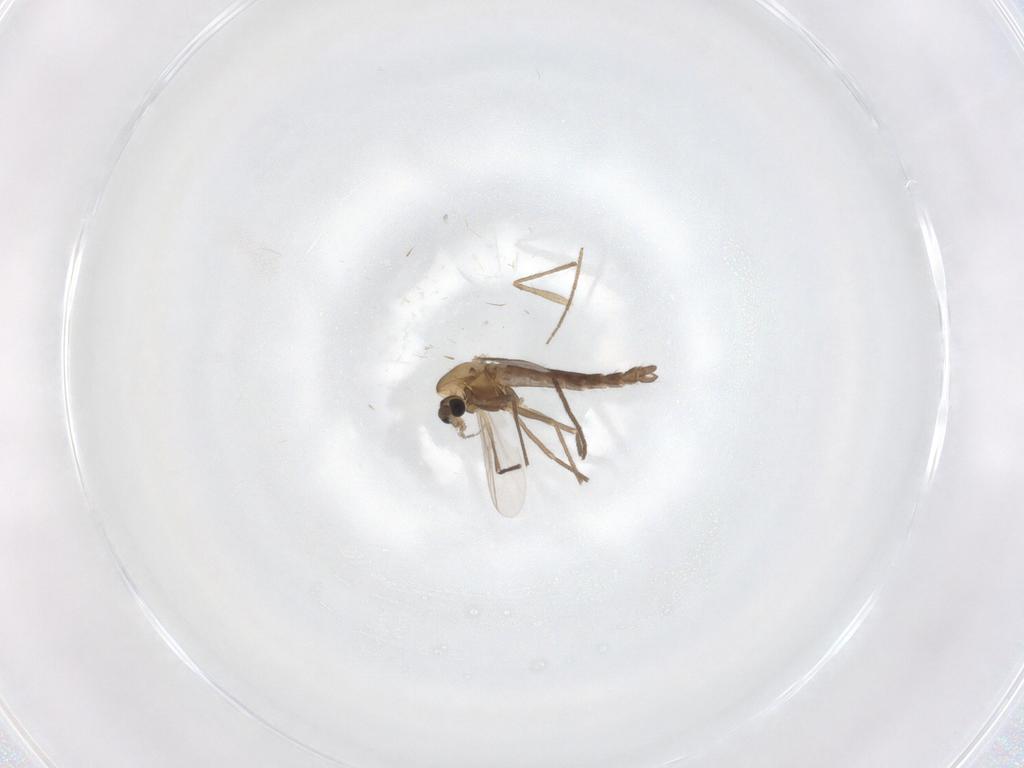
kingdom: Animalia
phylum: Arthropoda
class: Insecta
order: Diptera
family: Chironomidae
